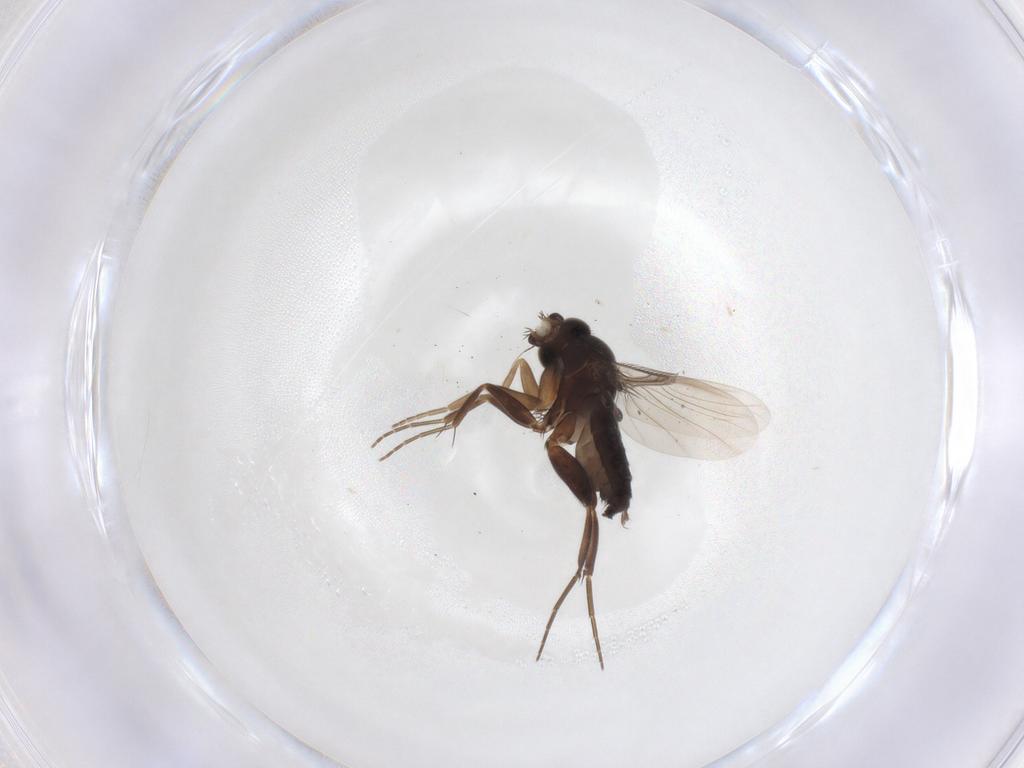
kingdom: Animalia
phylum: Arthropoda
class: Insecta
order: Diptera
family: Phoridae
